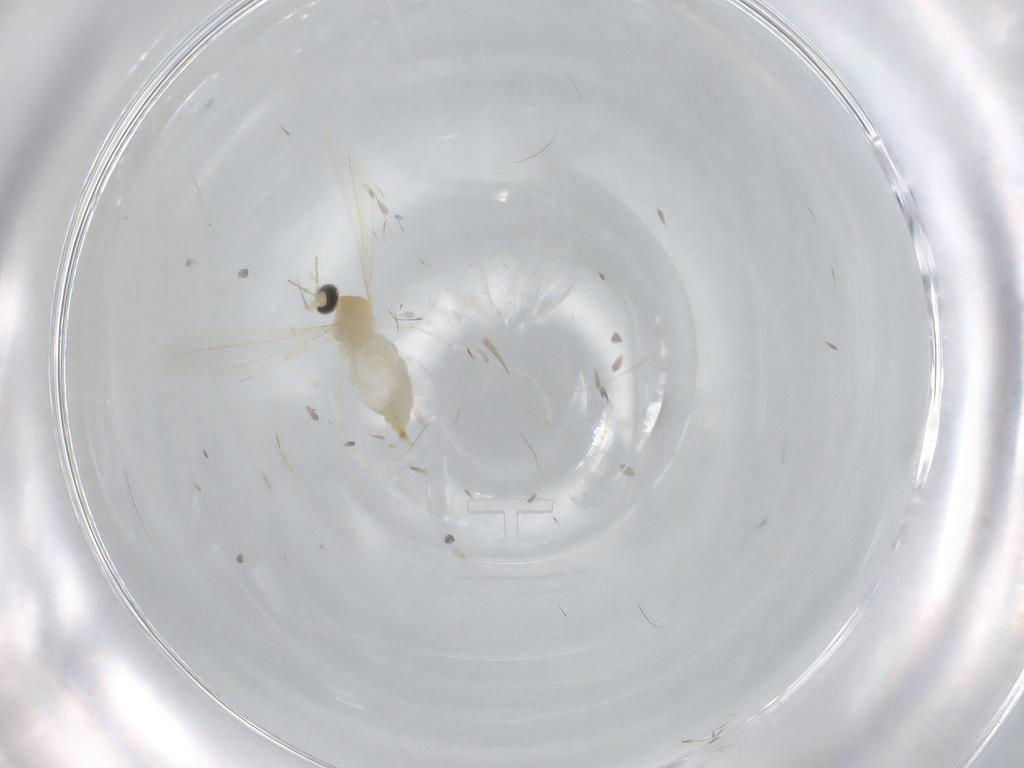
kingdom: Animalia
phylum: Arthropoda
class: Insecta
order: Diptera
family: Cecidomyiidae
